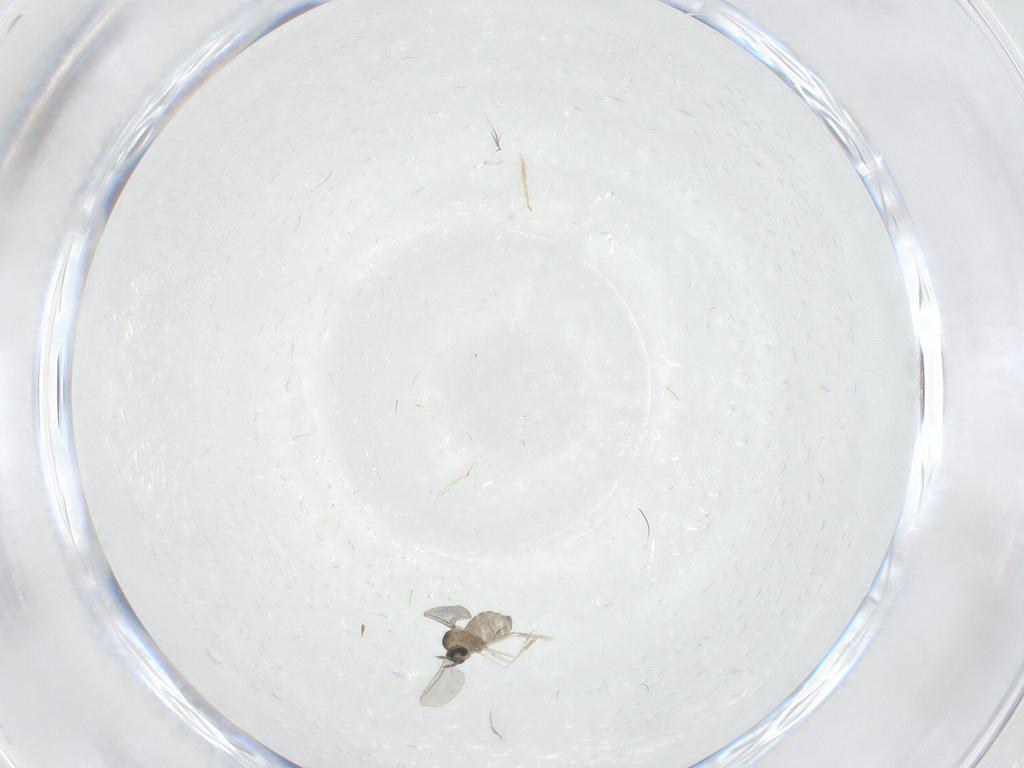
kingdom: Animalia
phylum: Arthropoda
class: Insecta
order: Diptera
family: Cecidomyiidae
